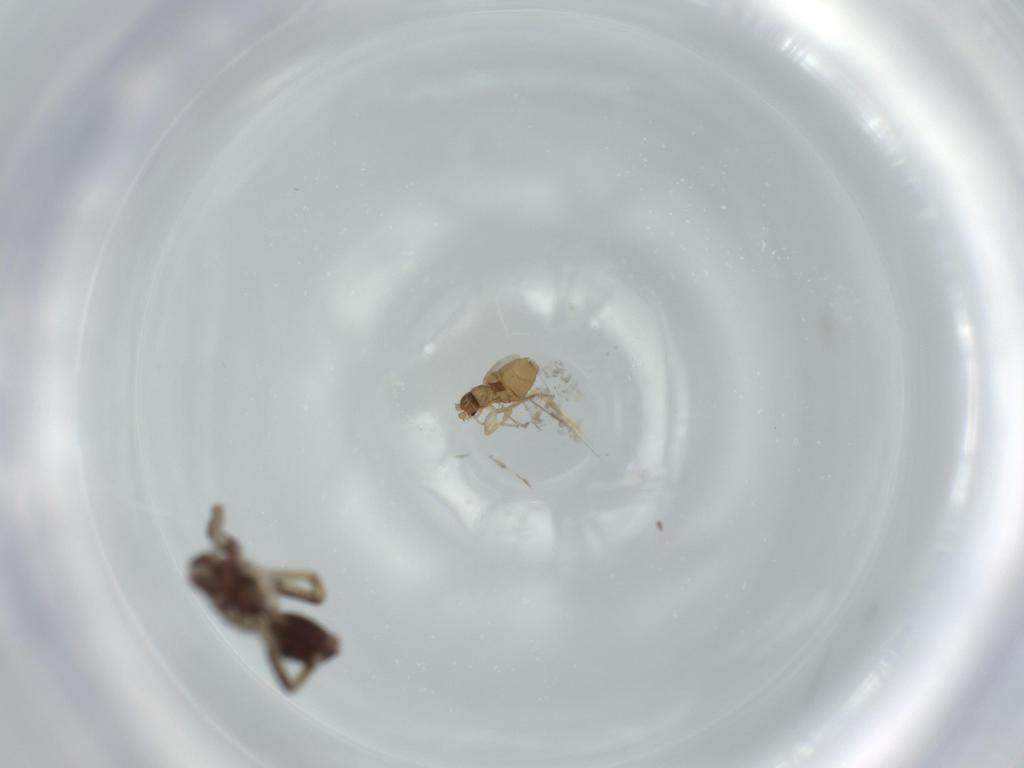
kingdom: Animalia
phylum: Arthropoda
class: Arachnida
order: Araneae
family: Corinnidae
